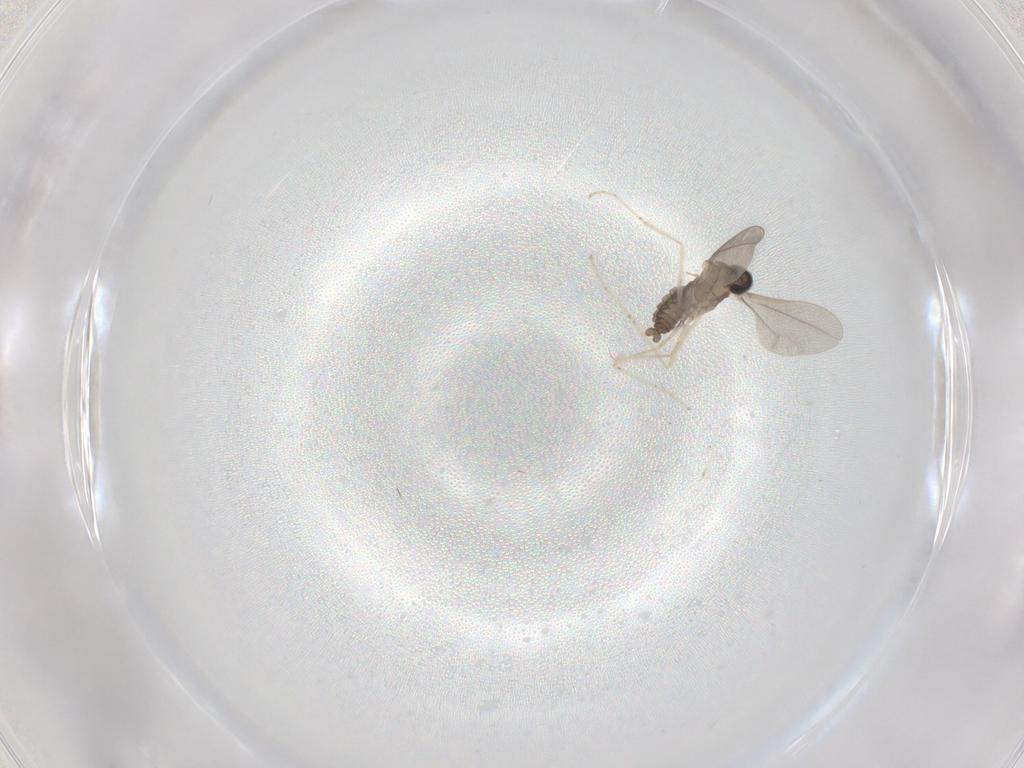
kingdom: Animalia
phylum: Arthropoda
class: Insecta
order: Diptera
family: Cecidomyiidae
